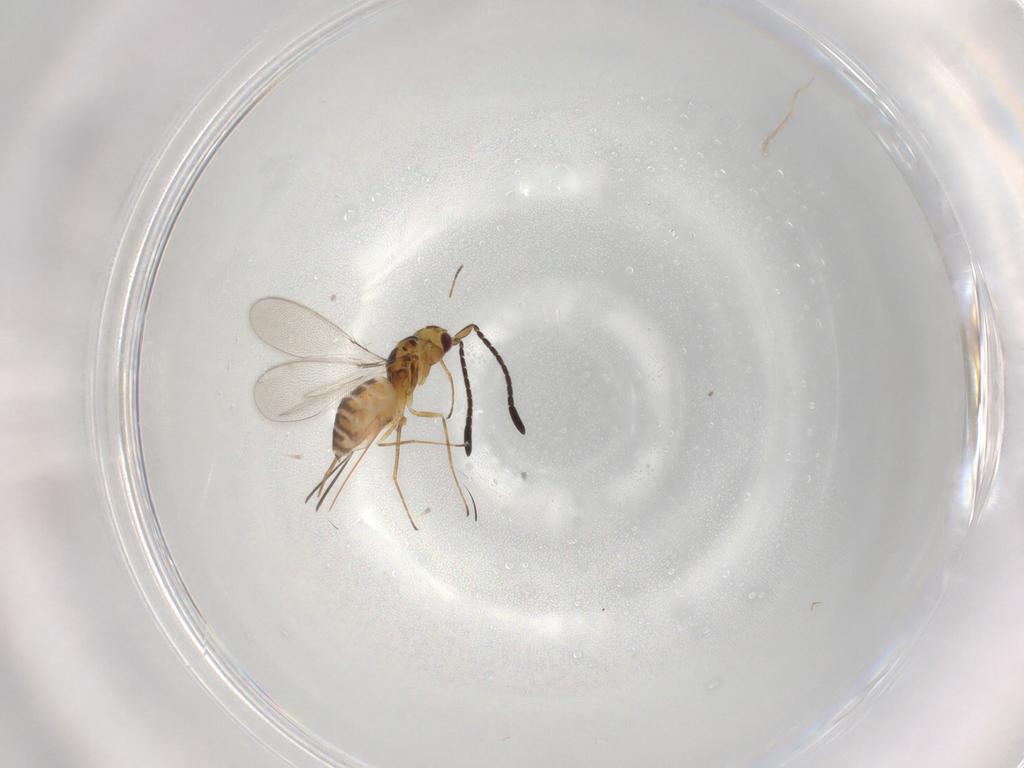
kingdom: Animalia
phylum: Arthropoda
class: Insecta
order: Hymenoptera
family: Mymaridae
